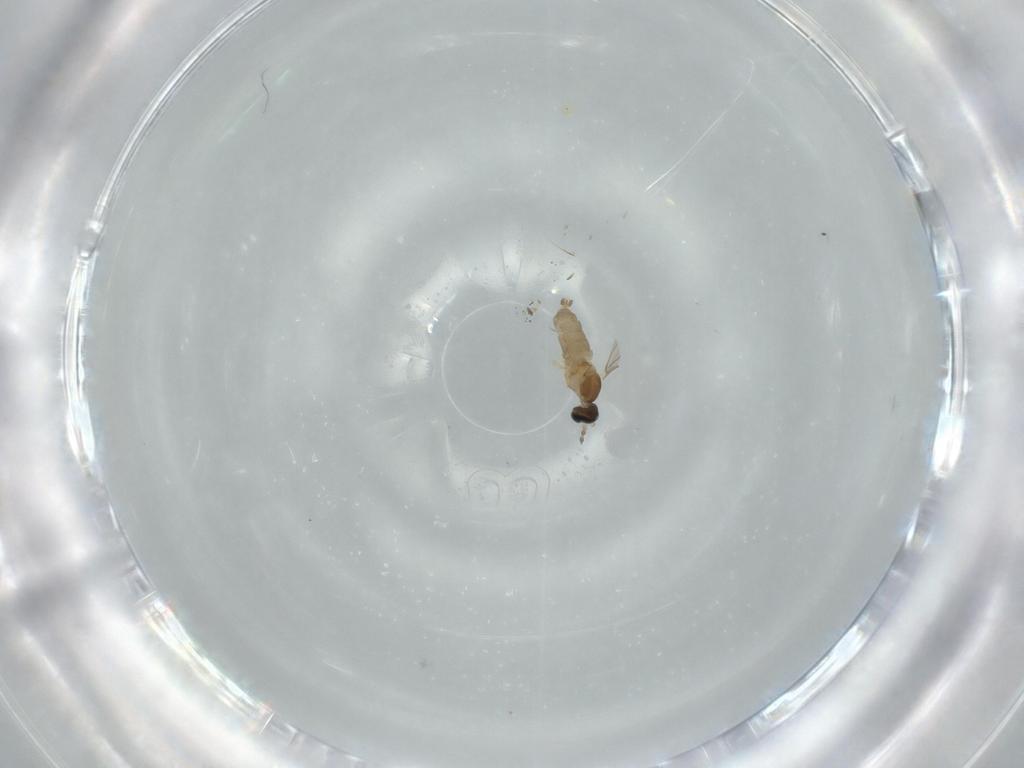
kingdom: Animalia
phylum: Arthropoda
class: Insecta
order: Diptera
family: Cecidomyiidae
